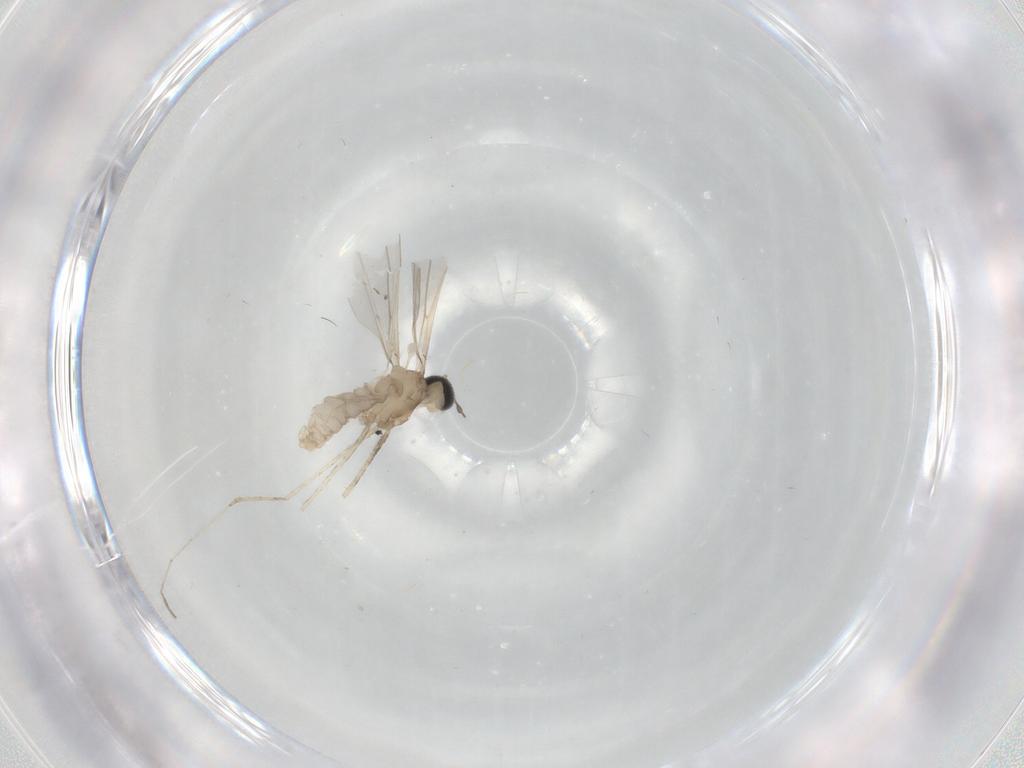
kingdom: Animalia
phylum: Arthropoda
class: Insecta
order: Diptera
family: Cecidomyiidae
